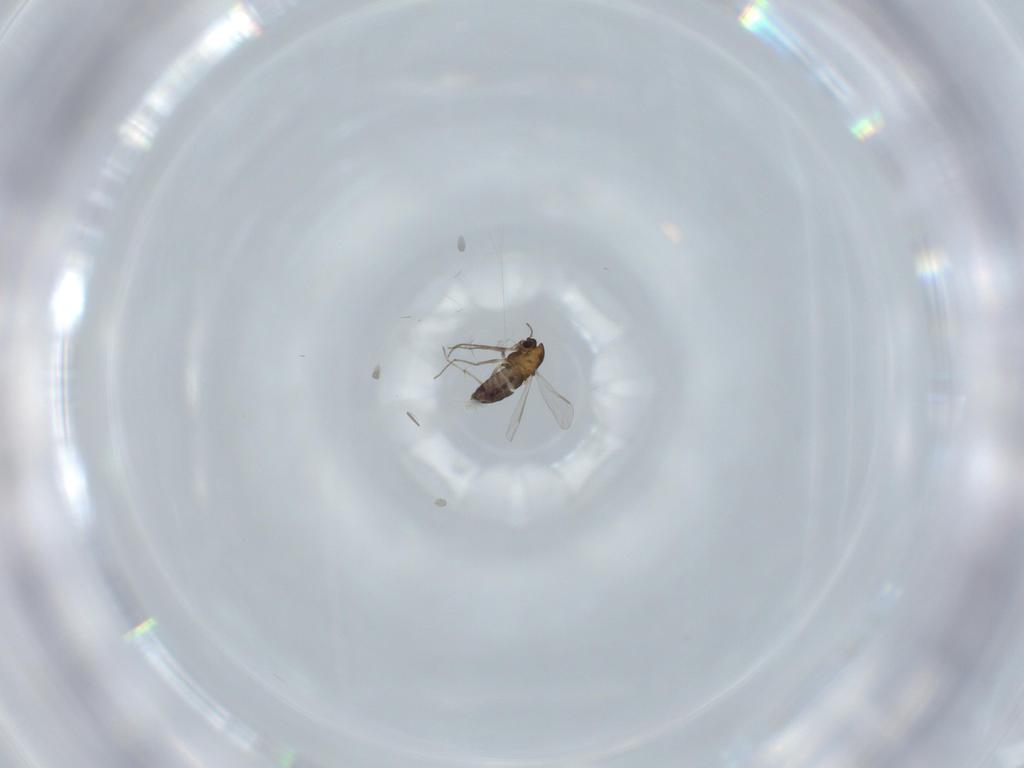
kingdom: Animalia
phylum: Arthropoda
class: Insecta
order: Diptera
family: Chironomidae
